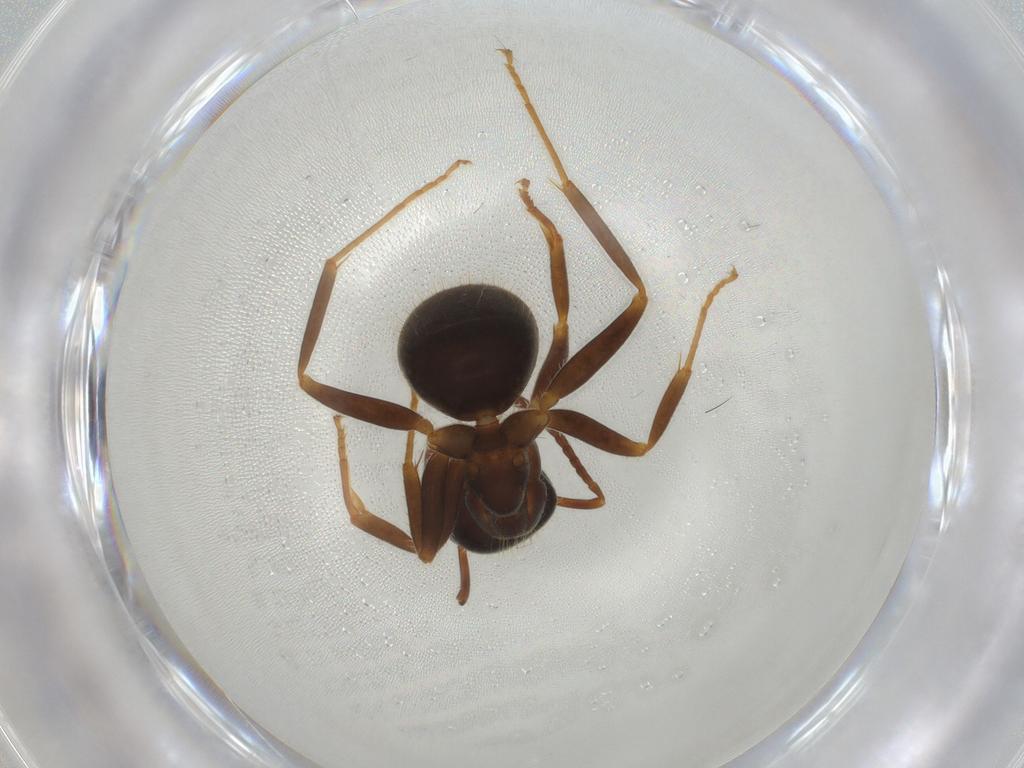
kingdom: Animalia
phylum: Arthropoda
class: Insecta
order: Hymenoptera
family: Formicidae
